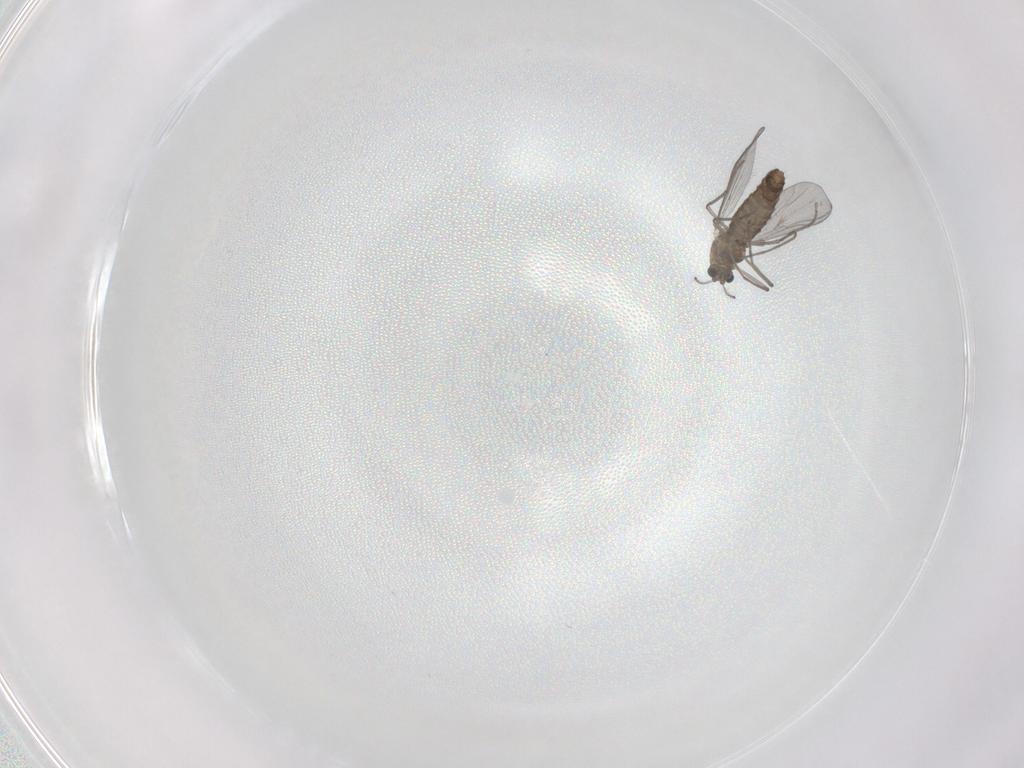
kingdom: Animalia
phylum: Arthropoda
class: Insecta
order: Diptera
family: Chironomidae
